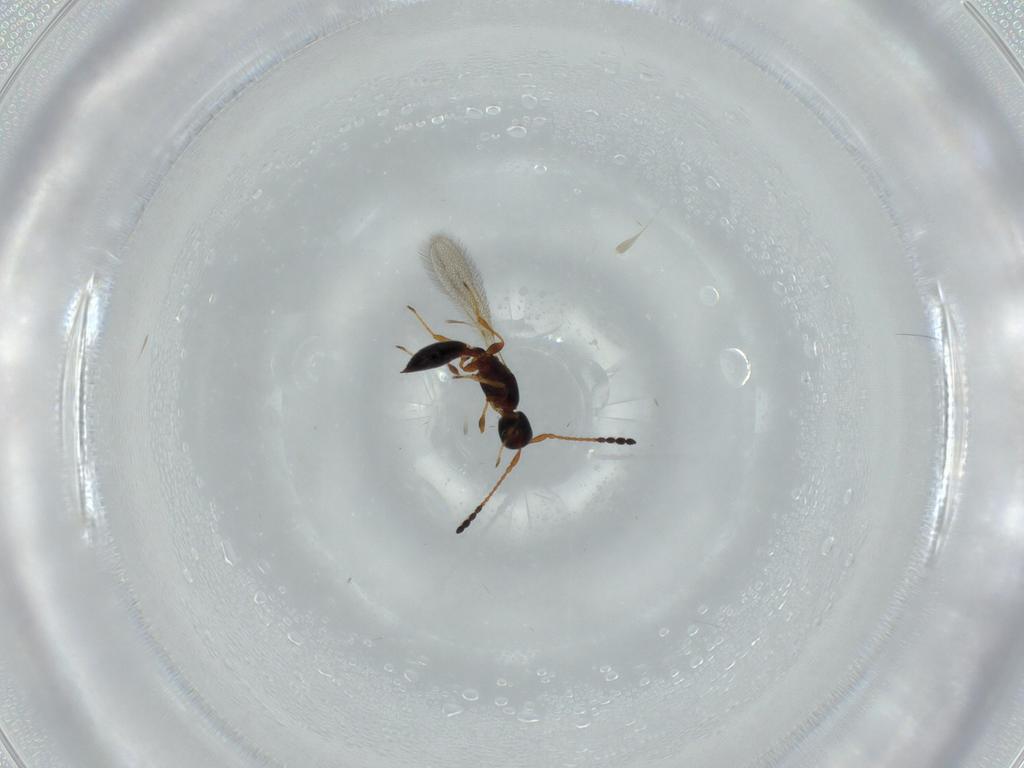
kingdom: Animalia
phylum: Arthropoda
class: Insecta
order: Hymenoptera
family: Diapriidae
